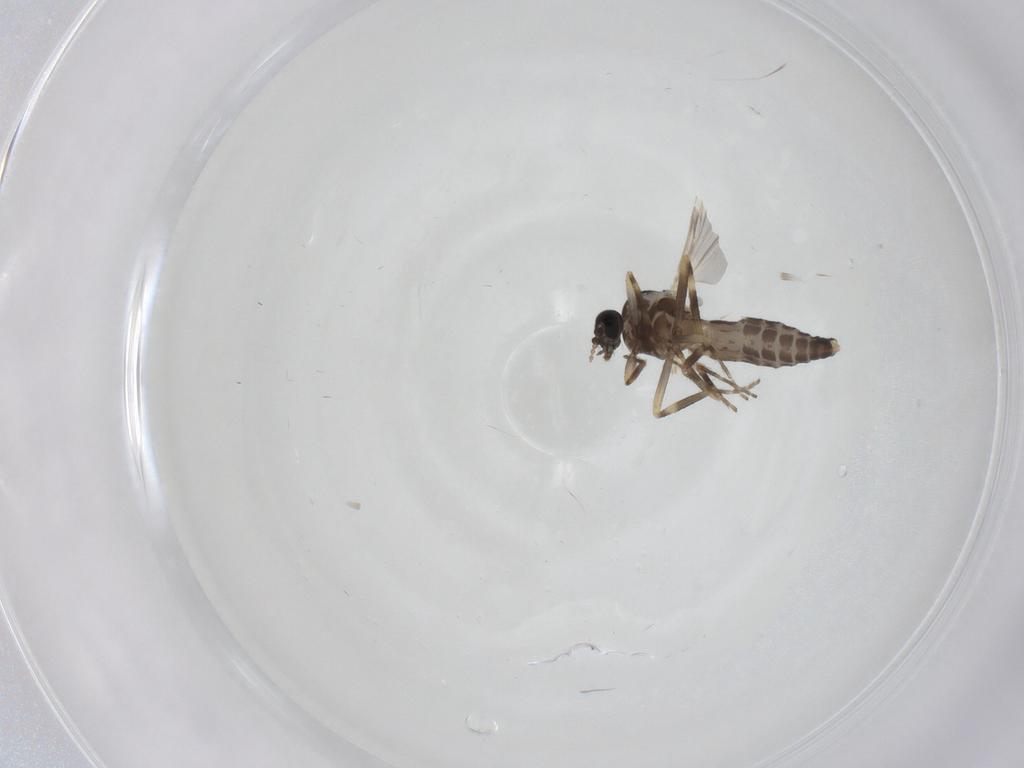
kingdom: Animalia
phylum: Arthropoda
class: Insecta
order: Diptera
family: Ceratopogonidae
